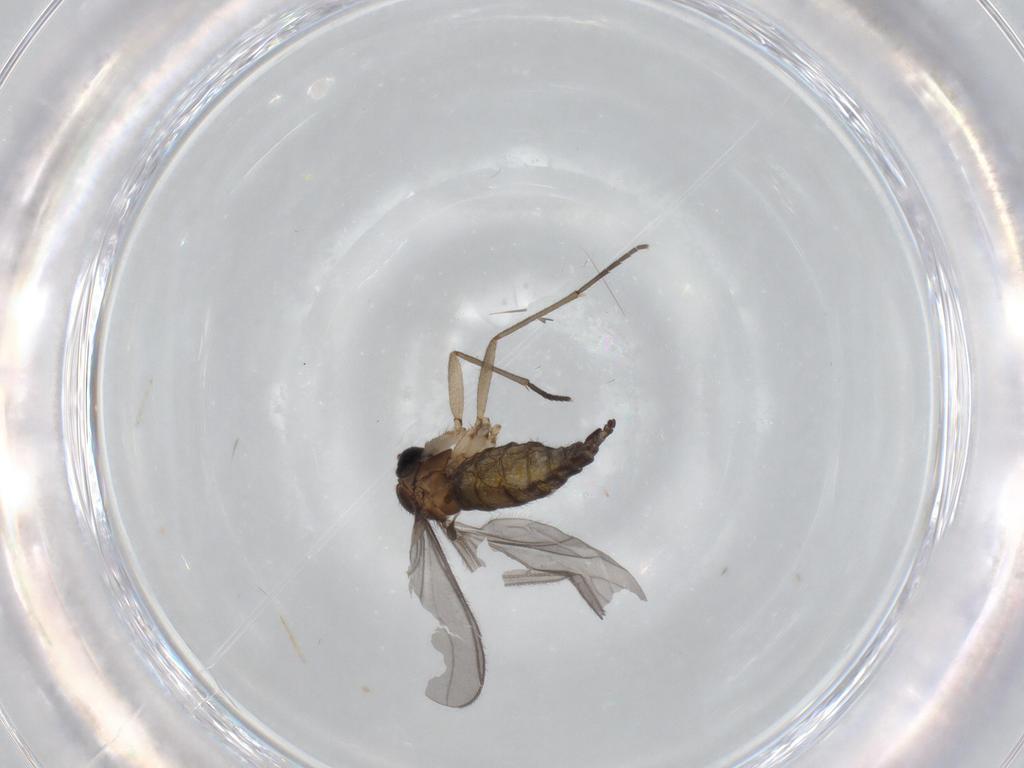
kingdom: Animalia
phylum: Arthropoda
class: Insecta
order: Diptera
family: Sciaridae
